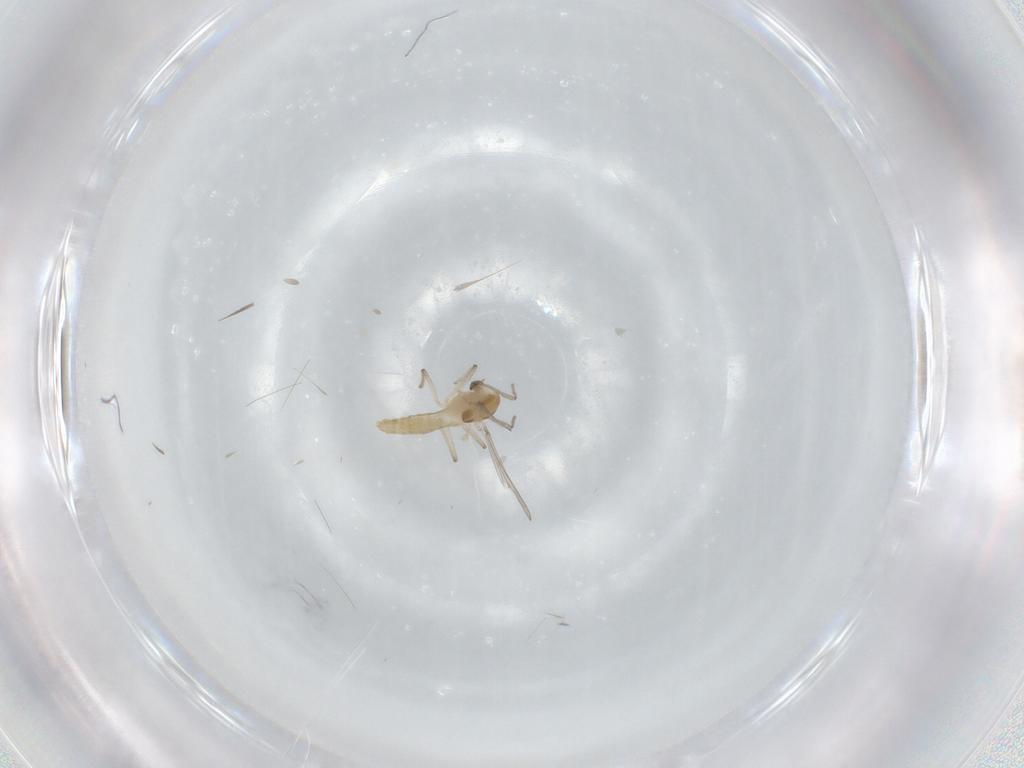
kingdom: Animalia
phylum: Arthropoda
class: Insecta
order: Diptera
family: Chironomidae
